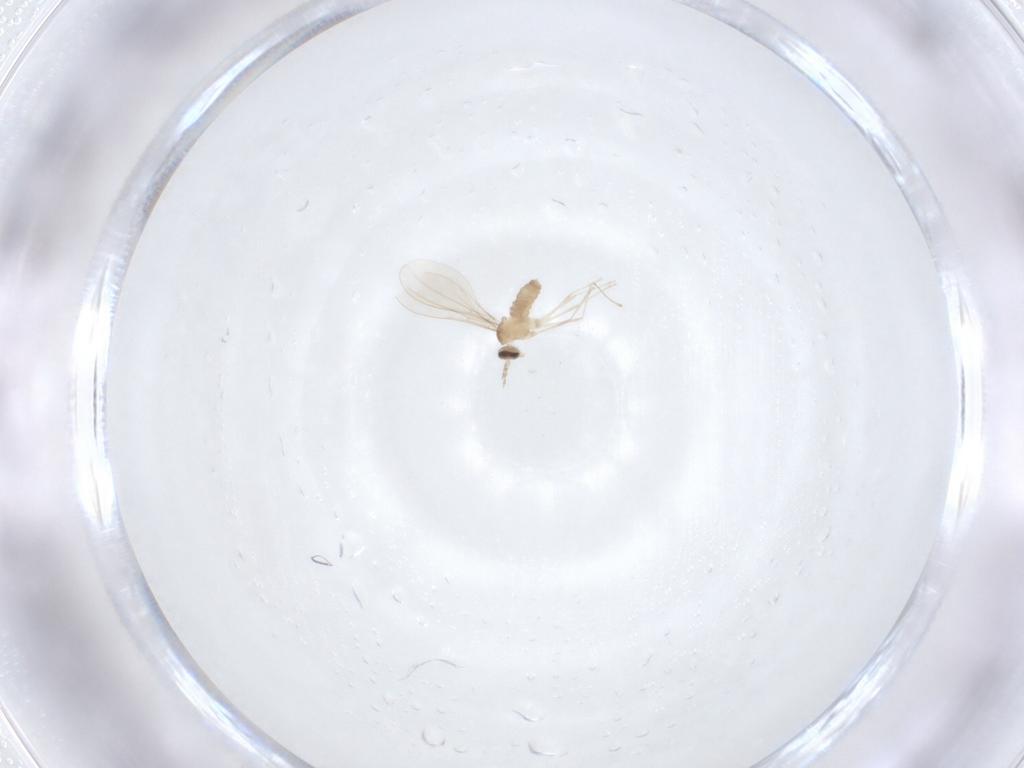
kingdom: Animalia
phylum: Arthropoda
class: Insecta
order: Diptera
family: Cecidomyiidae
